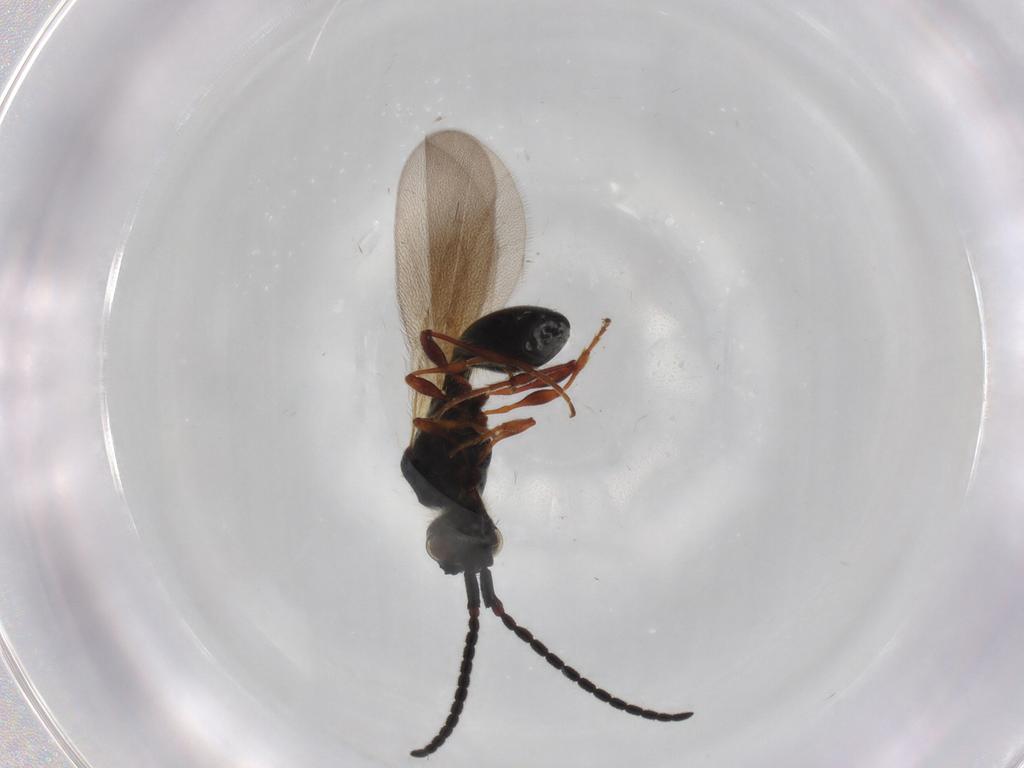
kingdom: Animalia
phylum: Arthropoda
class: Insecta
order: Hymenoptera
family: Diapriidae
